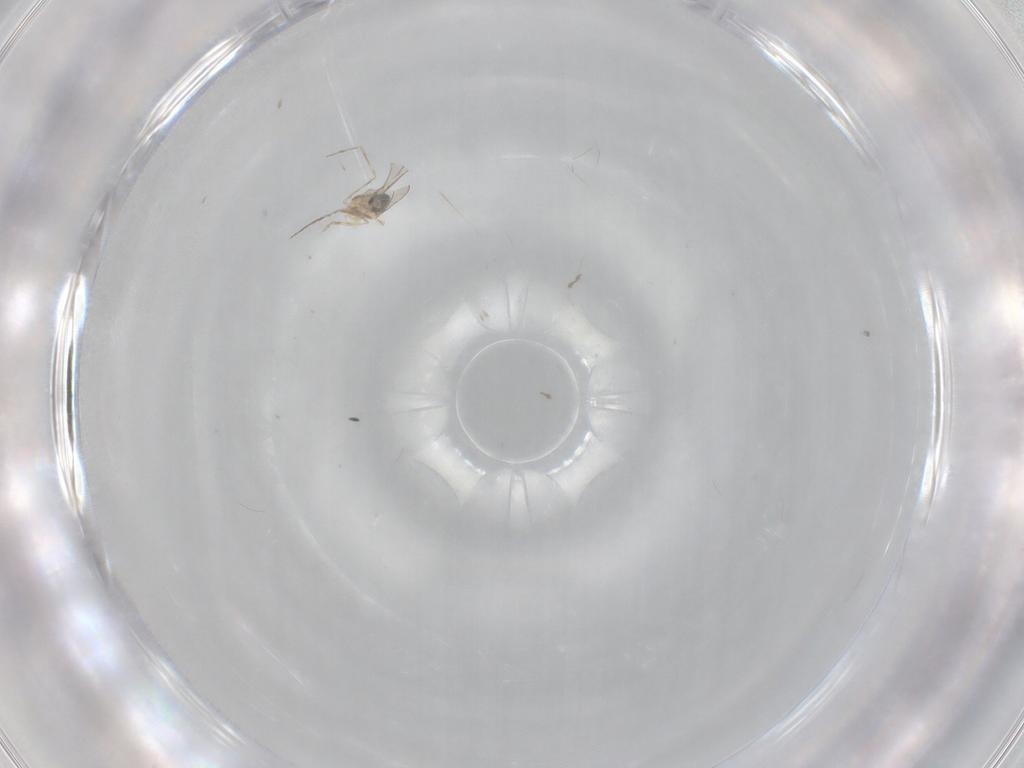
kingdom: Animalia
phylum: Arthropoda
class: Insecta
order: Diptera
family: Cecidomyiidae
